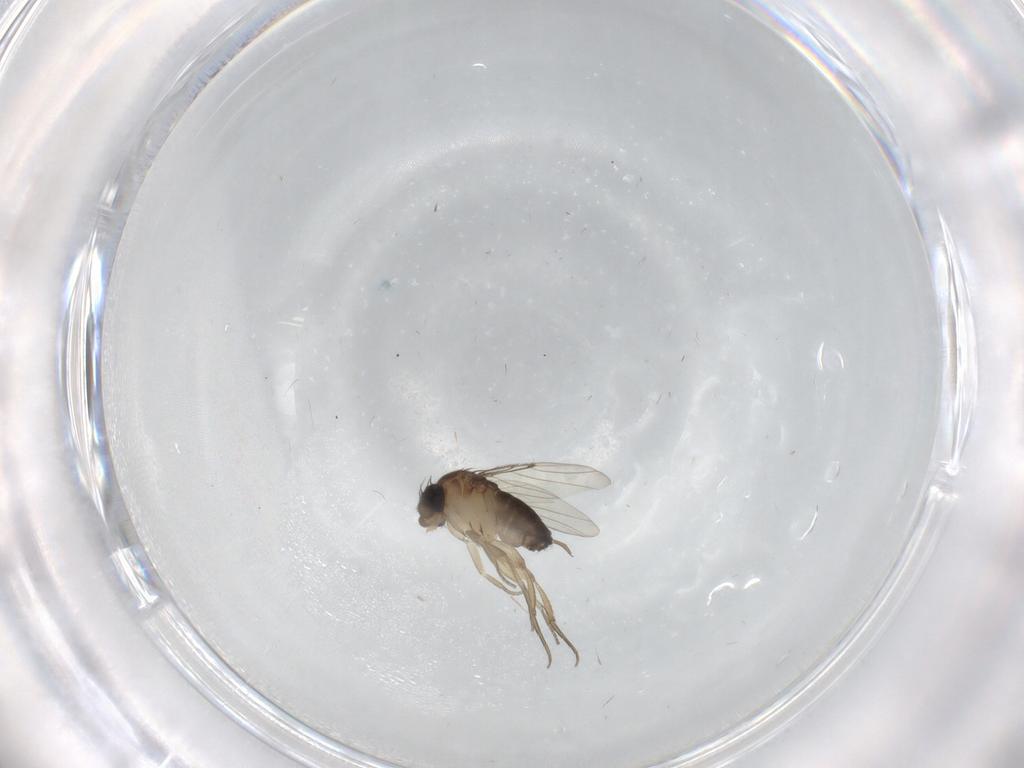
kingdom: Animalia
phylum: Arthropoda
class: Insecta
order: Diptera
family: Phoridae
